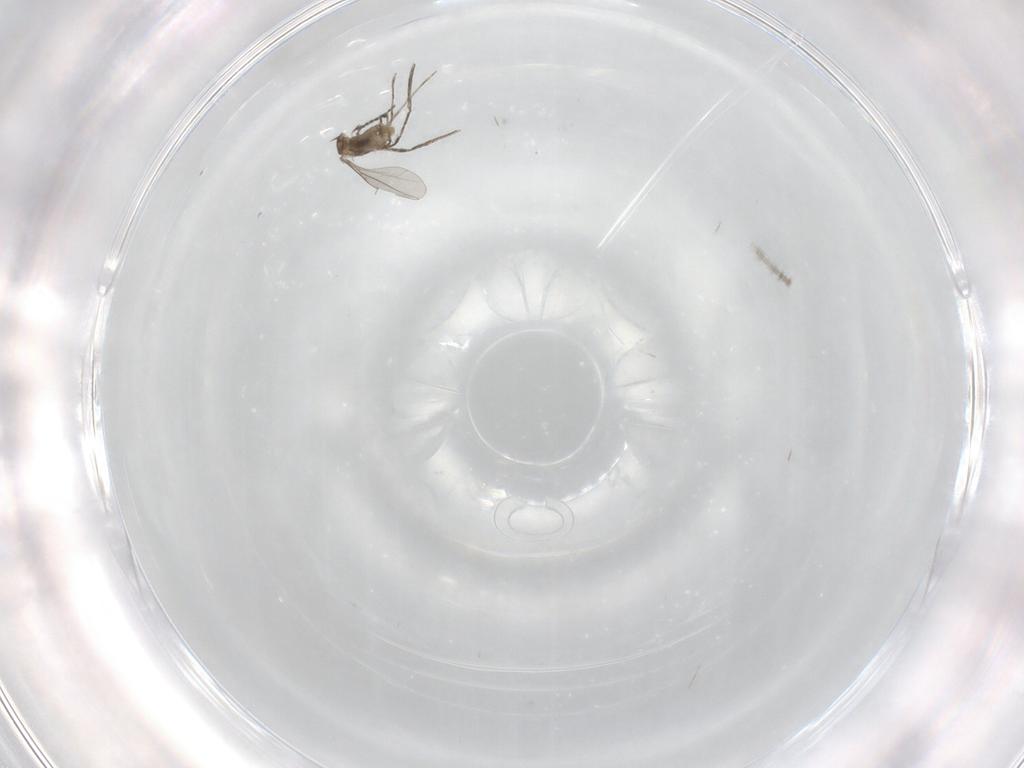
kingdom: Animalia
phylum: Arthropoda
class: Insecta
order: Diptera
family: Cecidomyiidae
